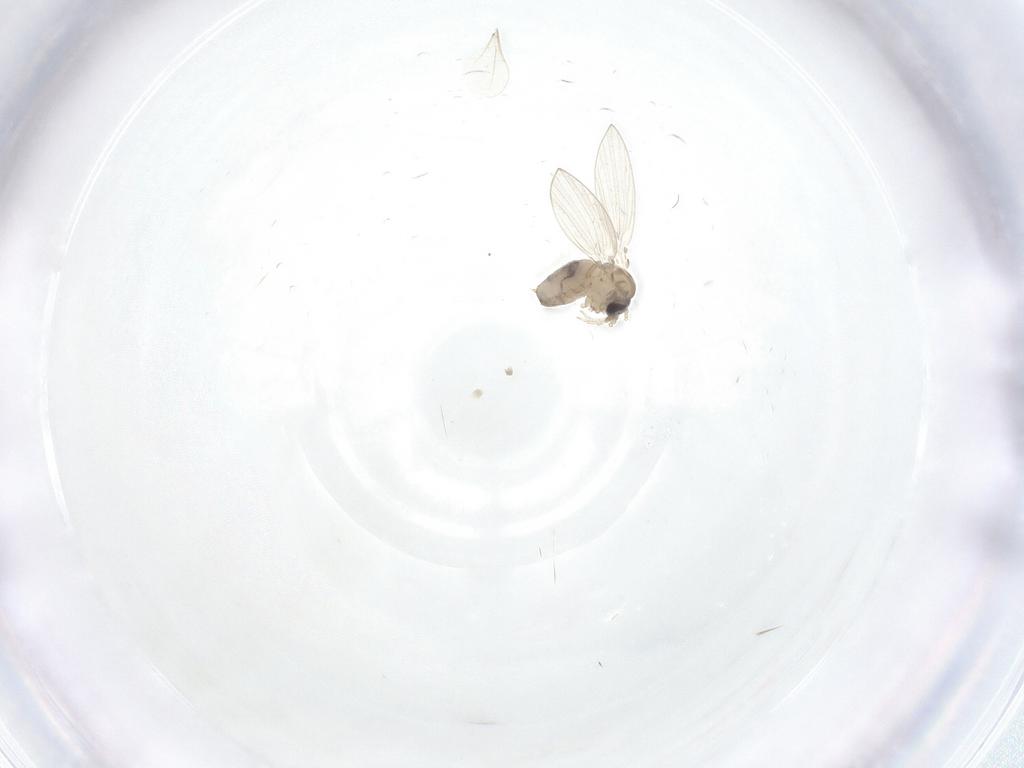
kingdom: Animalia
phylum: Arthropoda
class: Insecta
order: Diptera
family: Psychodidae
